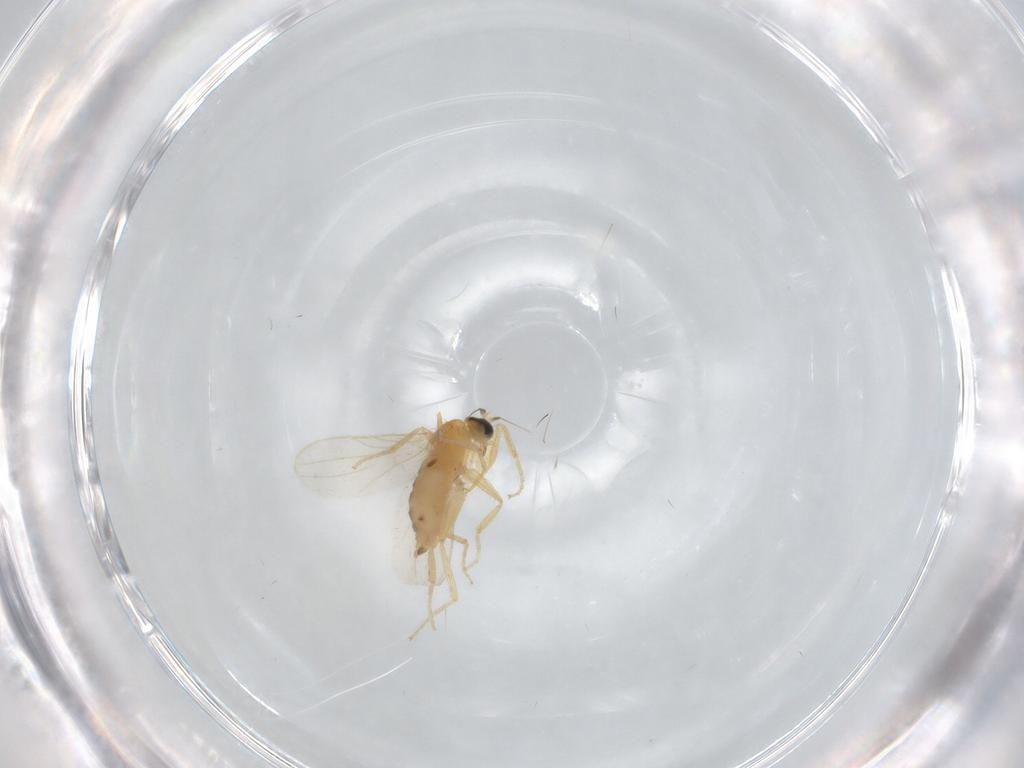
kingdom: Animalia
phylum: Arthropoda
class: Insecta
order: Diptera
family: Hybotidae
